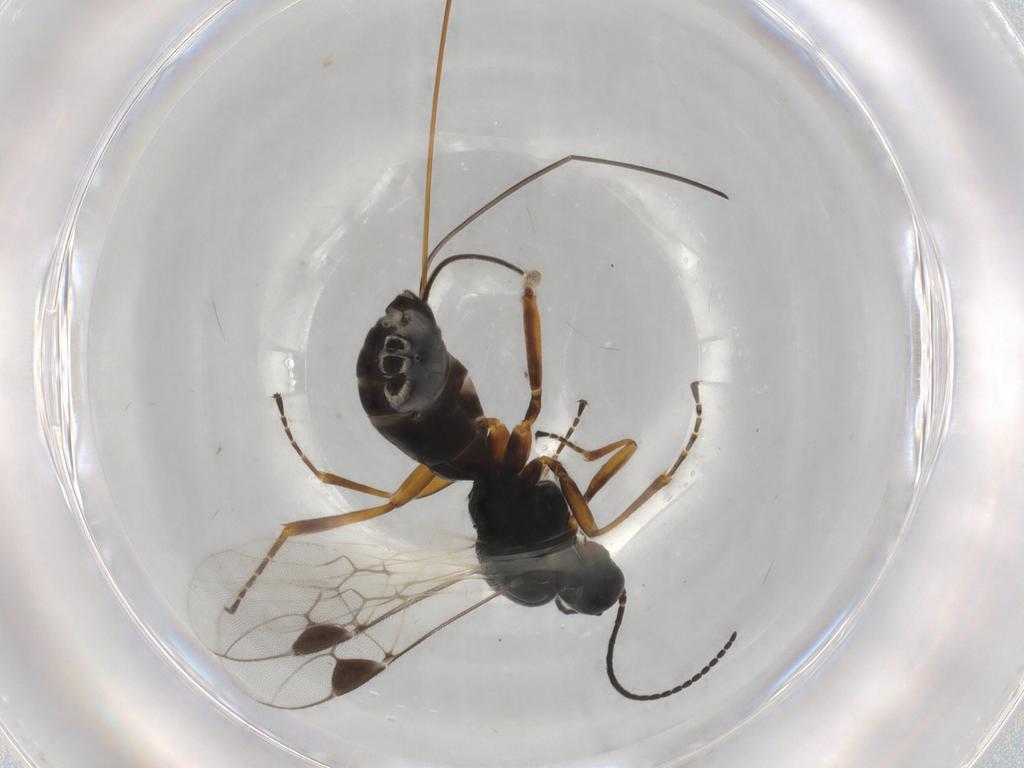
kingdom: Animalia
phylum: Arthropoda
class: Insecta
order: Hymenoptera
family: Braconidae
